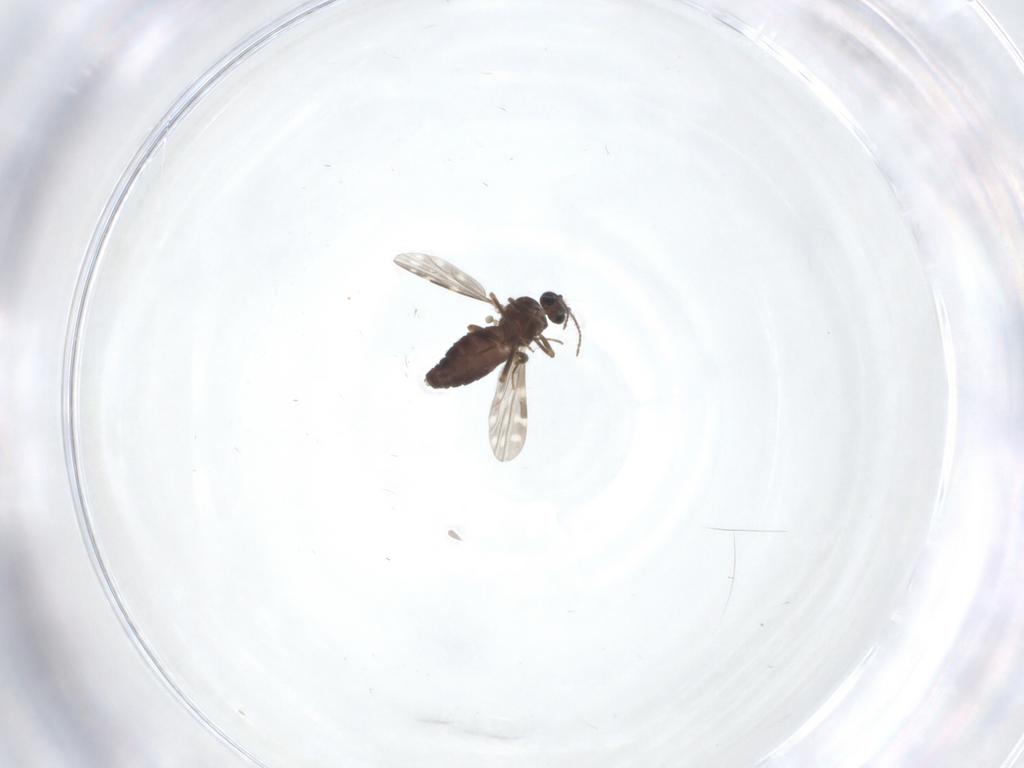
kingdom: Animalia
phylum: Arthropoda
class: Insecta
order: Diptera
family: Ceratopogonidae
